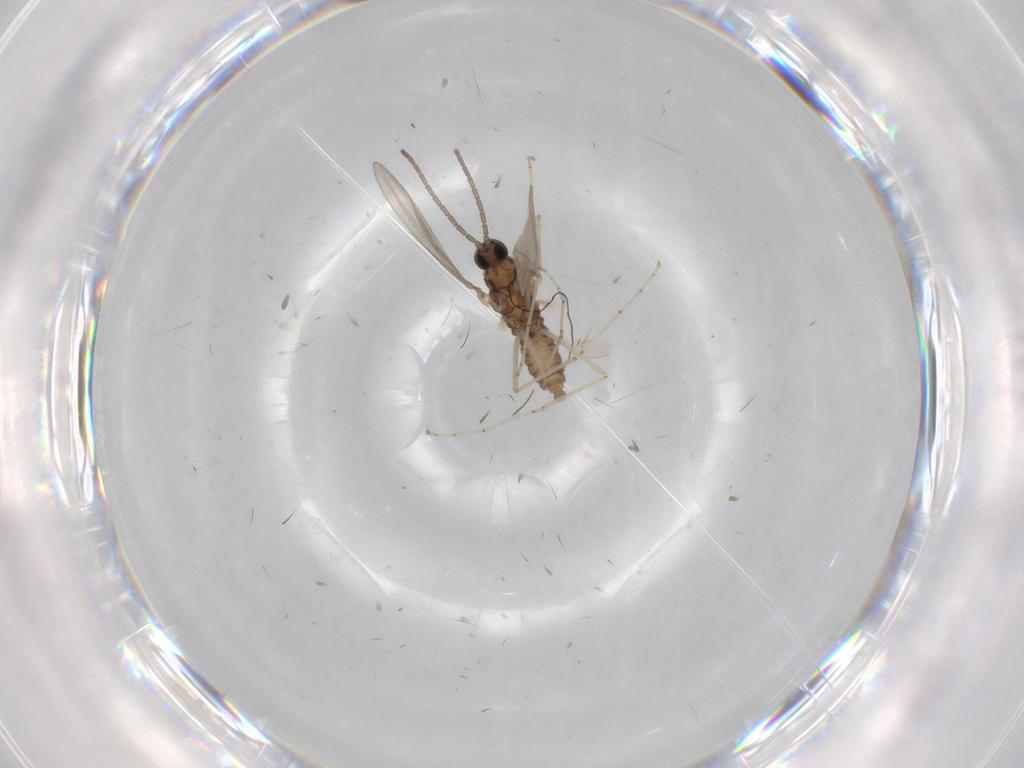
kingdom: Animalia
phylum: Arthropoda
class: Insecta
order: Diptera
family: Cecidomyiidae
